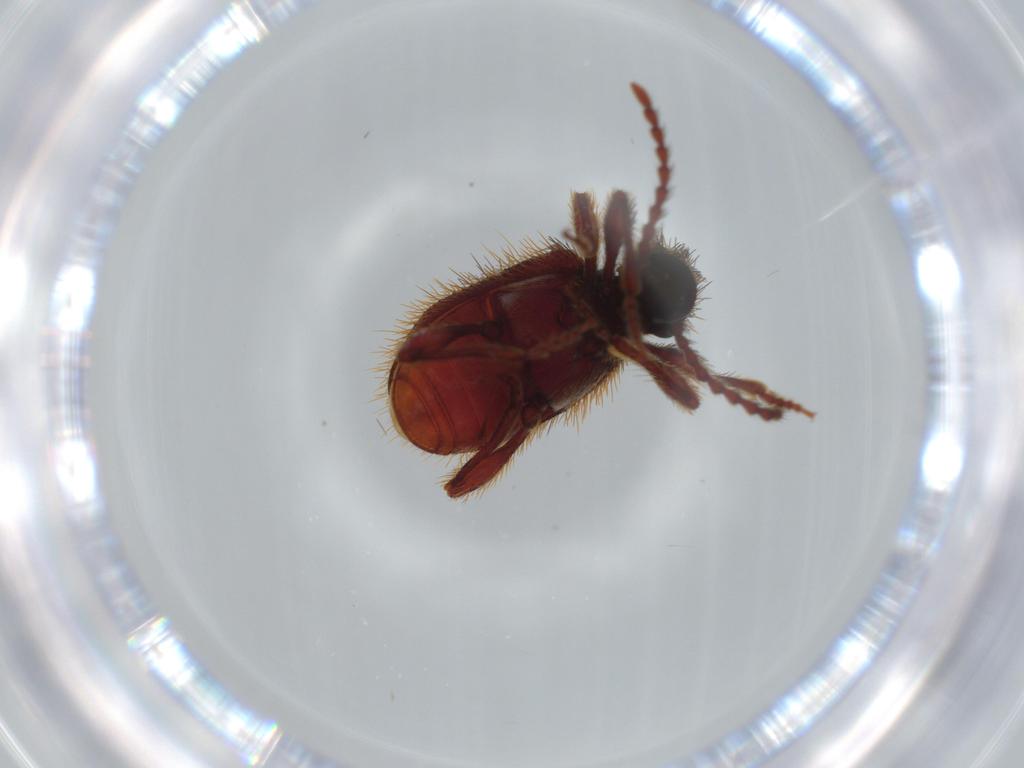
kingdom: Animalia
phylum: Arthropoda
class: Insecta
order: Coleoptera
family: Ptinidae
